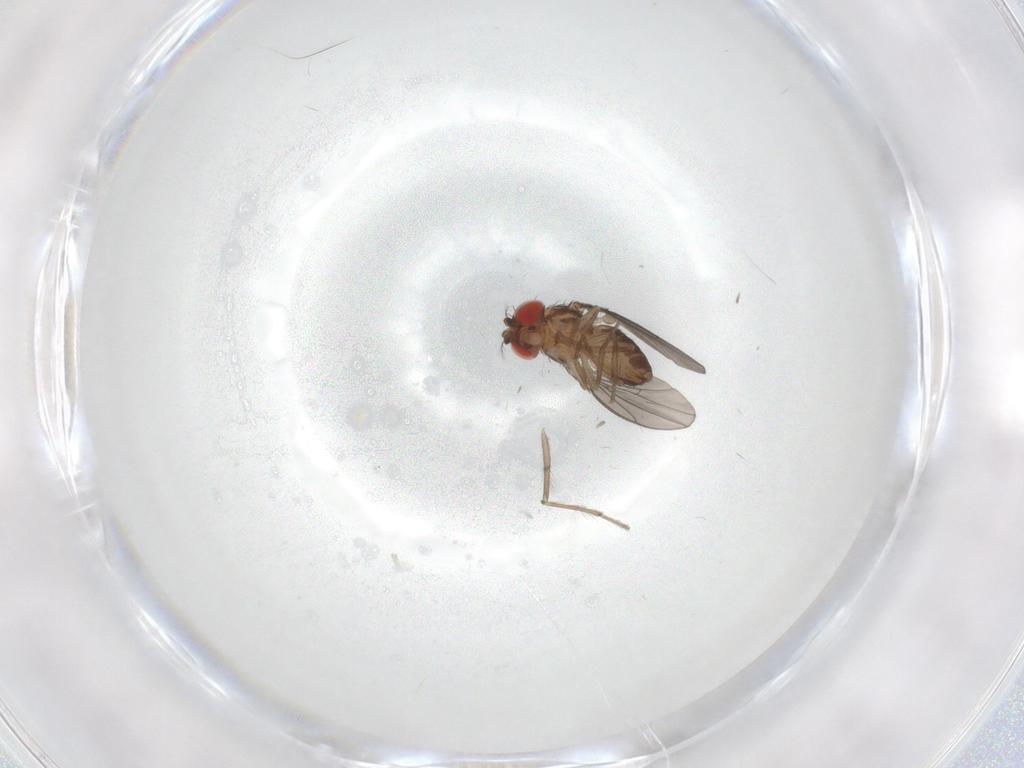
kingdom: Animalia
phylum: Arthropoda
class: Insecta
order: Diptera
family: Drosophilidae
